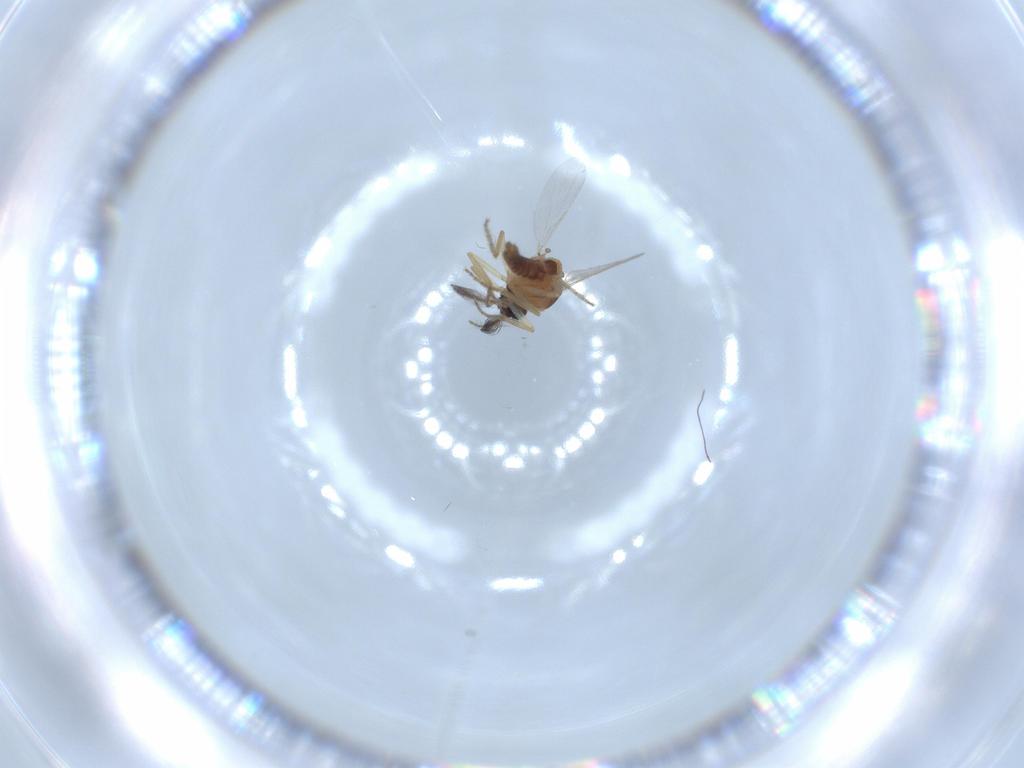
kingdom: Animalia
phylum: Arthropoda
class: Insecta
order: Diptera
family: Ceratopogonidae
